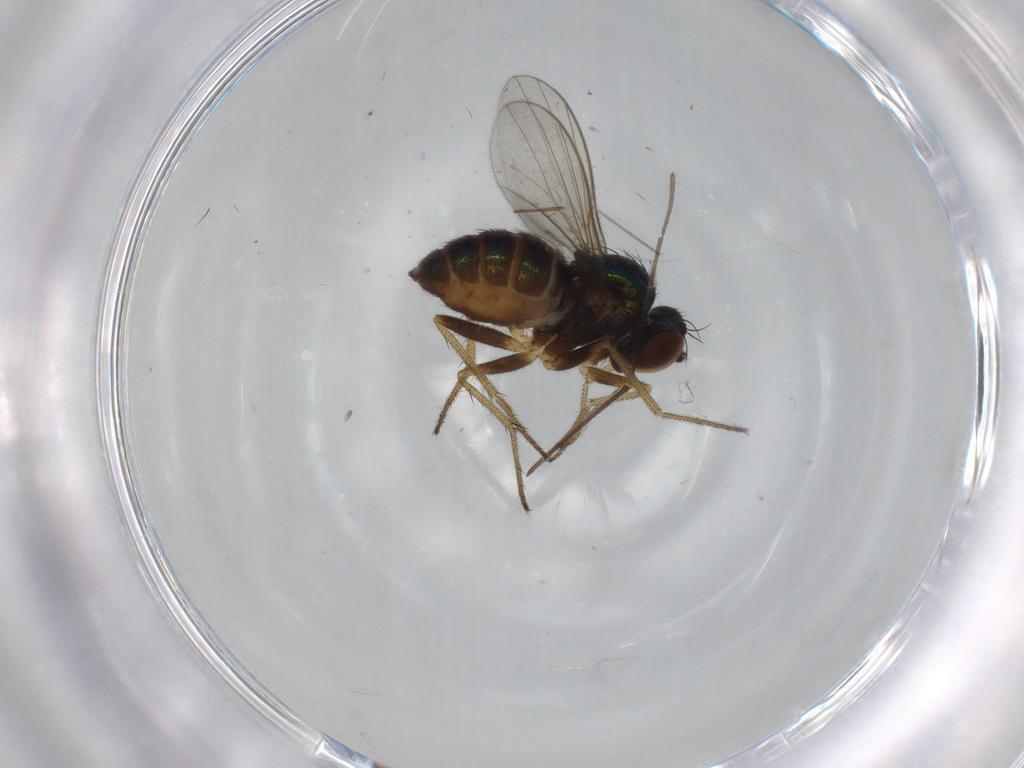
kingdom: Animalia
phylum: Arthropoda
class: Insecta
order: Diptera
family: Chironomidae
